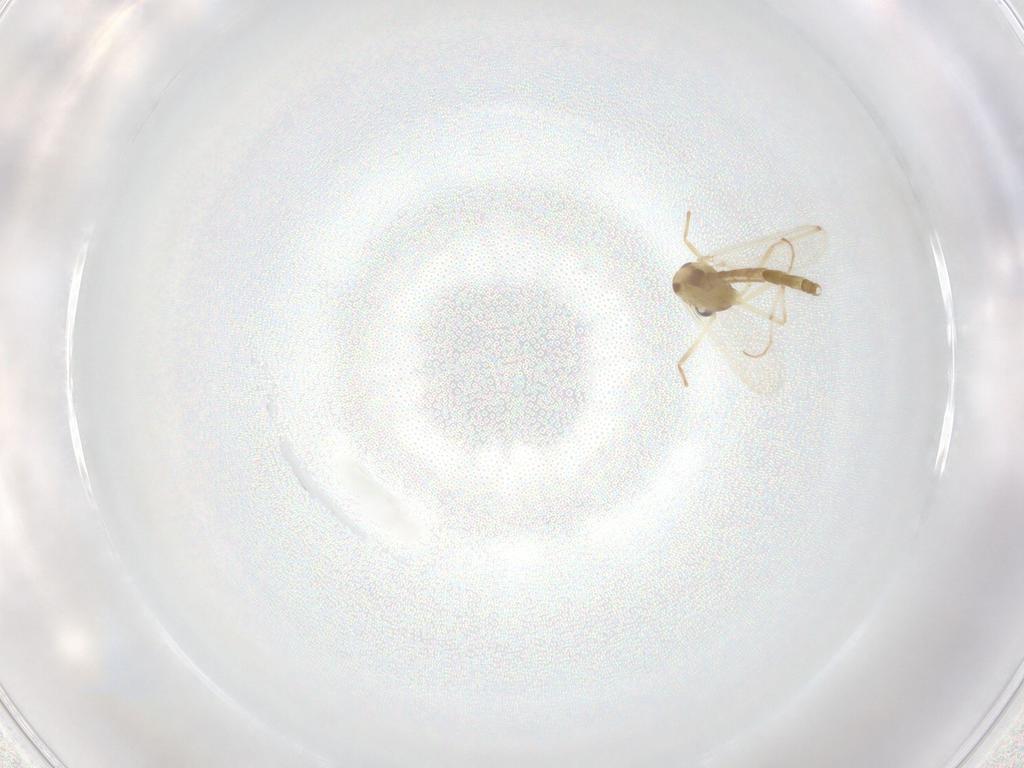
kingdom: Animalia
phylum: Arthropoda
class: Insecta
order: Diptera
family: Chironomidae
